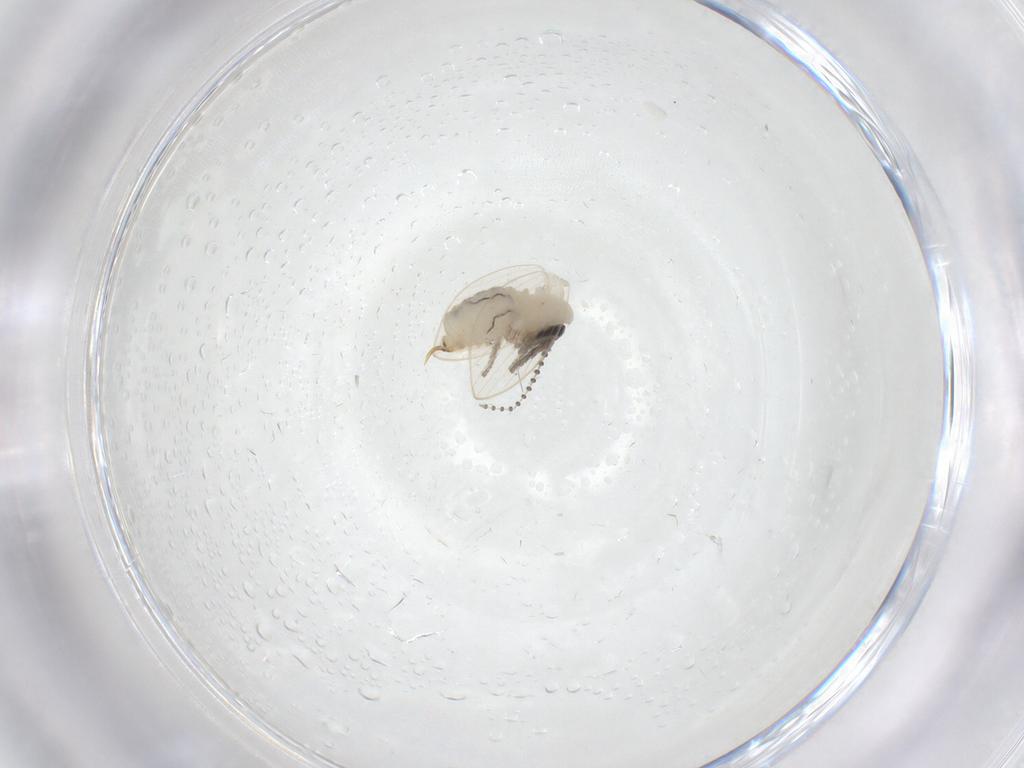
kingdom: Animalia
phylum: Arthropoda
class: Insecta
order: Diptera
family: Psychodidae
